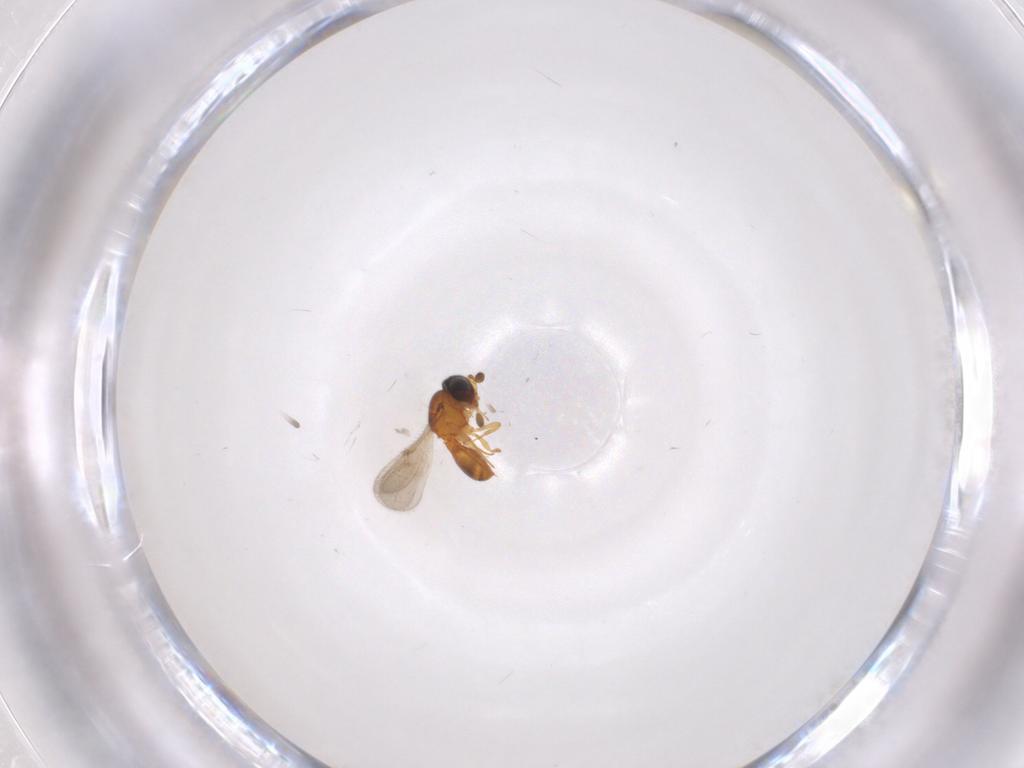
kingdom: Animalia
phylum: Arthropoda
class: Insecta
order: Hymenoptera
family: Scelionidae
